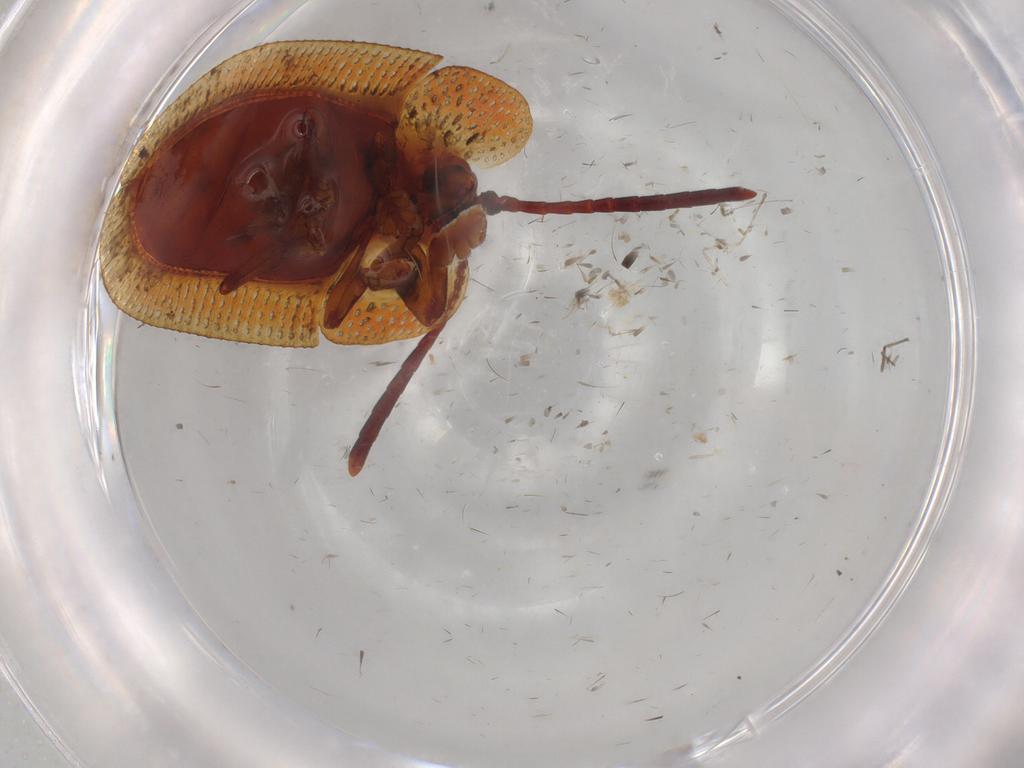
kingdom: Animalia
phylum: Arthropoda
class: Insecta
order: Coleoptera
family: Chrysomelidae
